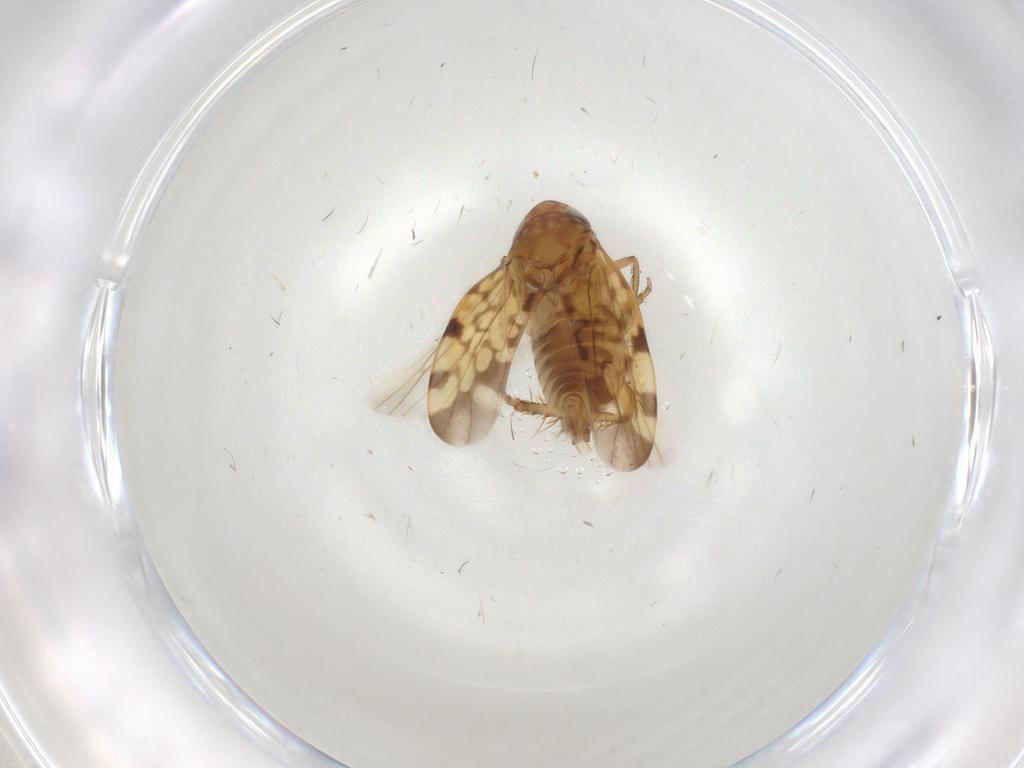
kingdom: Animalia
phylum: Arthropoda
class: Insecta
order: Hemiptera
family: Cicadellidae
